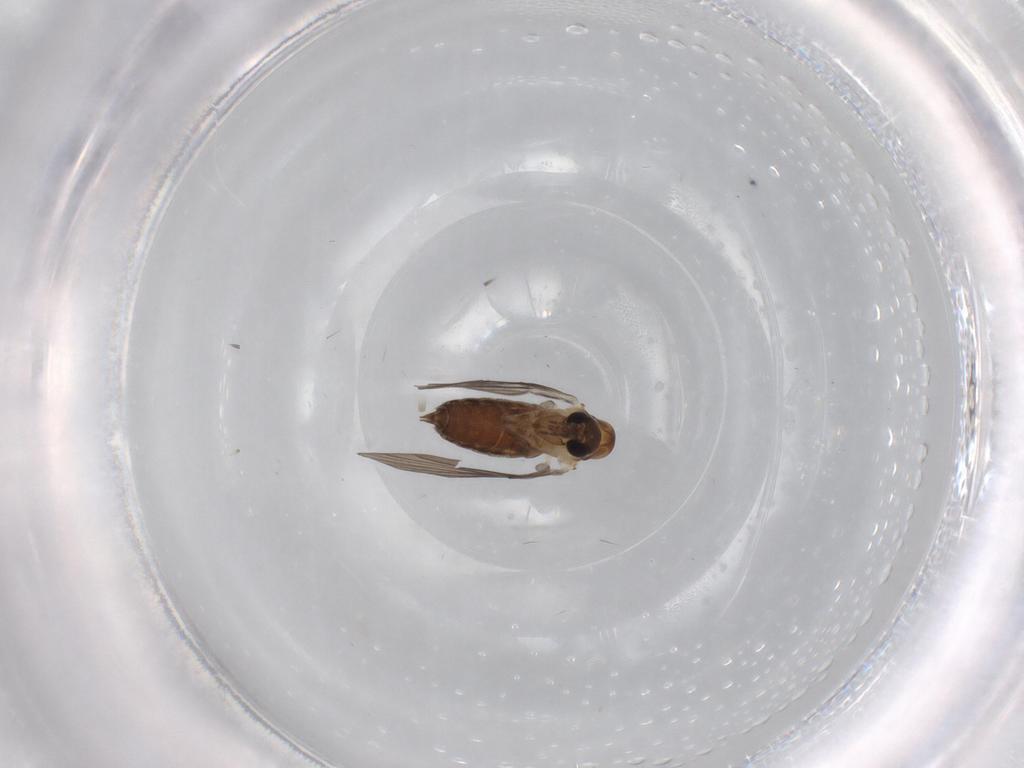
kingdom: Animalia
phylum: Arthropoda
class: Insecta
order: Diptera
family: Limoniidae
